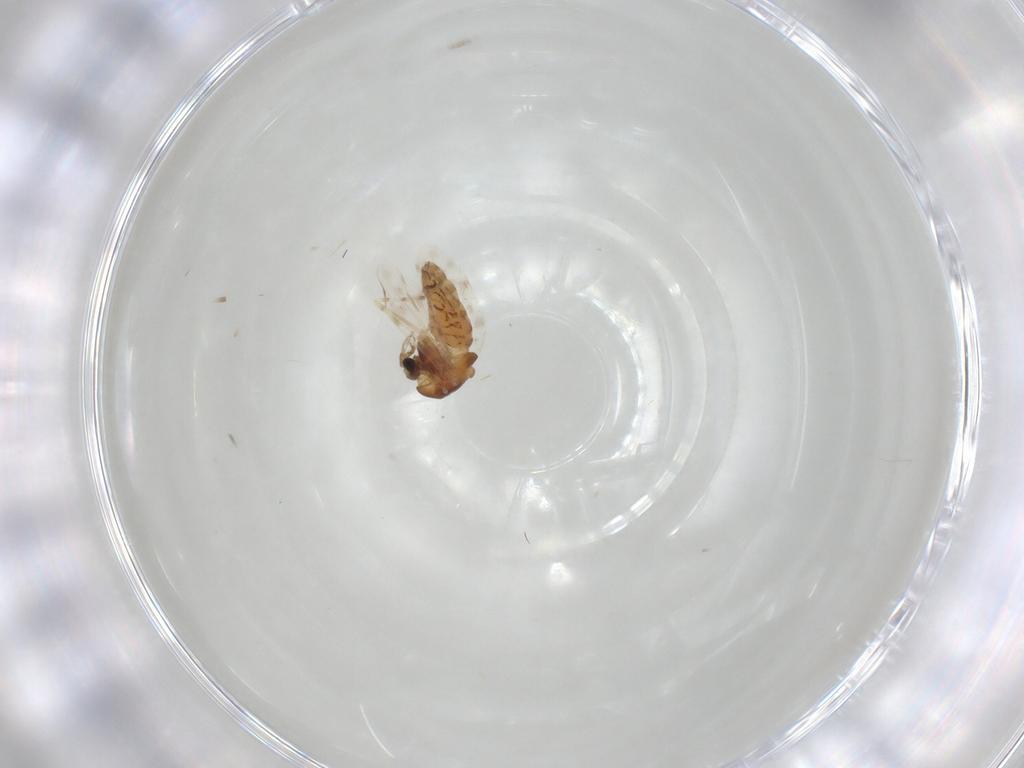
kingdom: Animalia
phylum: Arthropoda
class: Insecta
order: Diptera
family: Chironomidae
